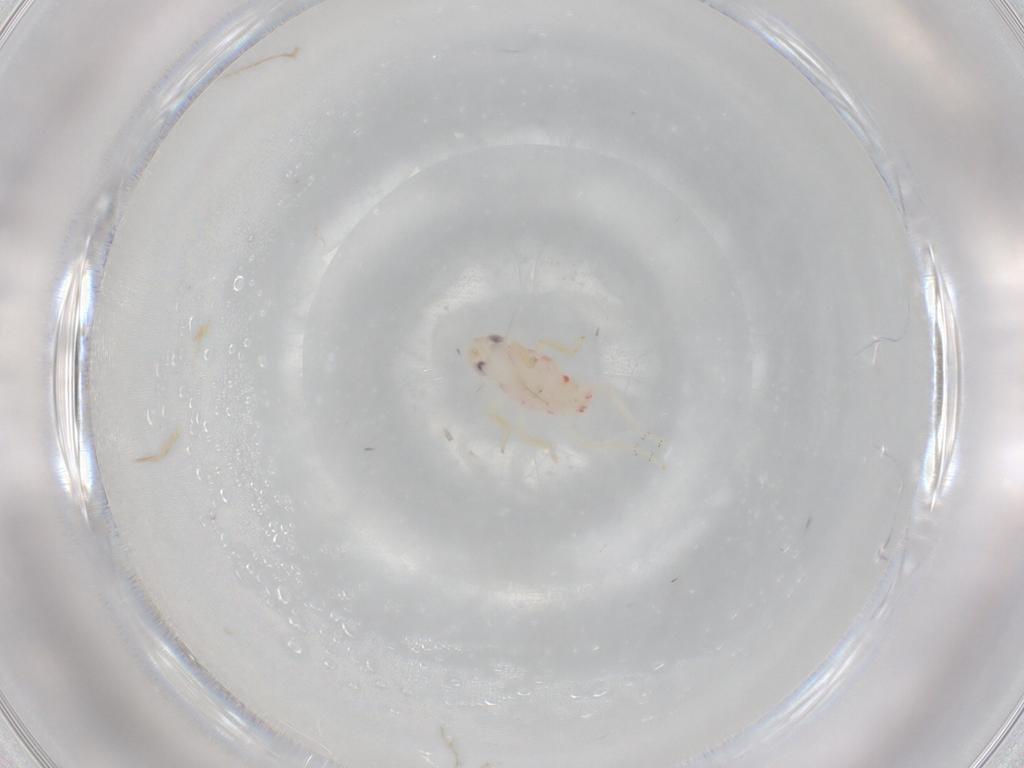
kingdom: Animalia
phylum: Arthropoda
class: Insecta
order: Hemiptera
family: Tropiduchidae
